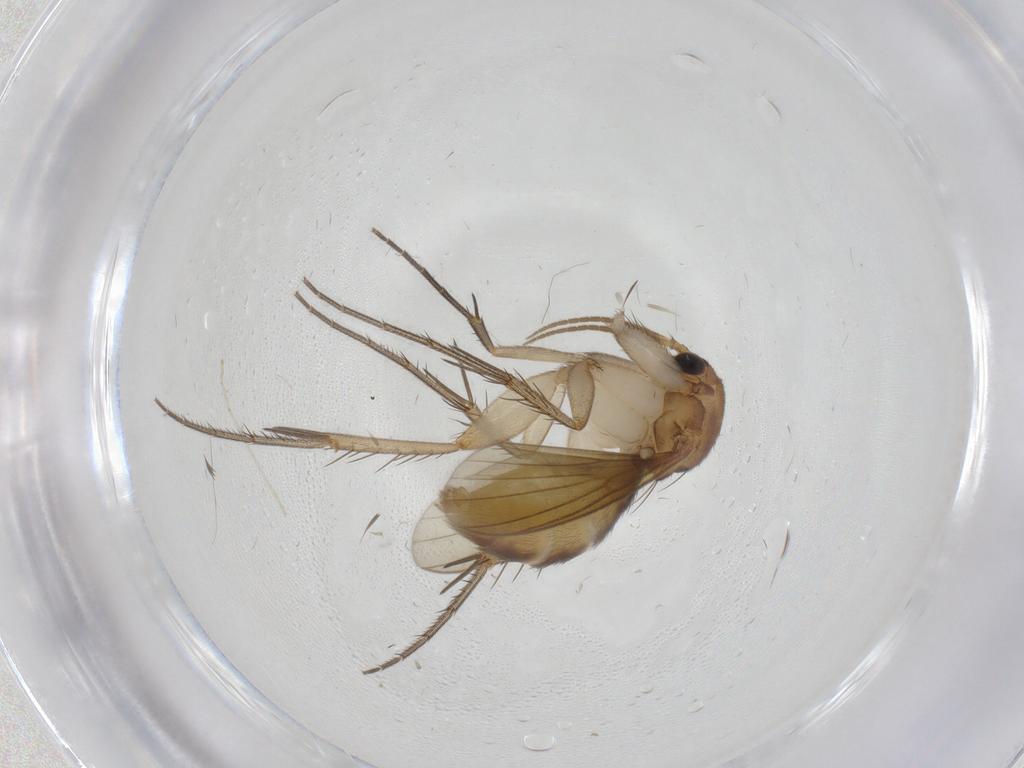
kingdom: Animalia
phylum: Arthropoda
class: Insecta
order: Diptera
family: Mycetophilidae
